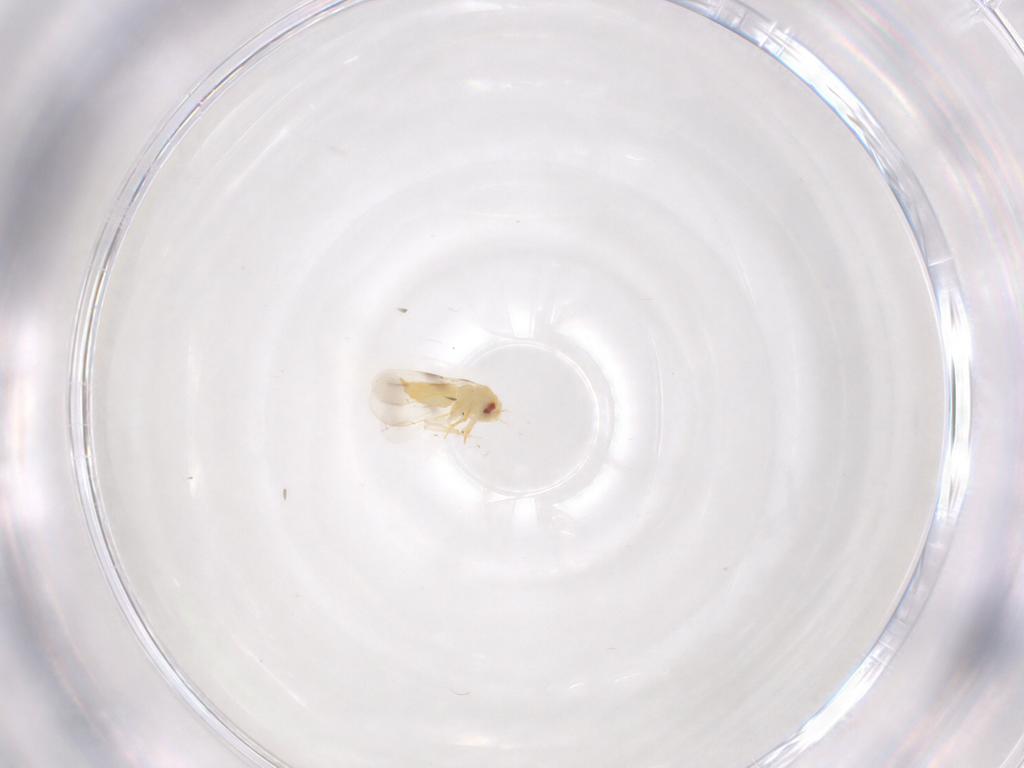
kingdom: Animalia
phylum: Arthropoda
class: Insecta
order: Hemiptera
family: Aleyrodidae
